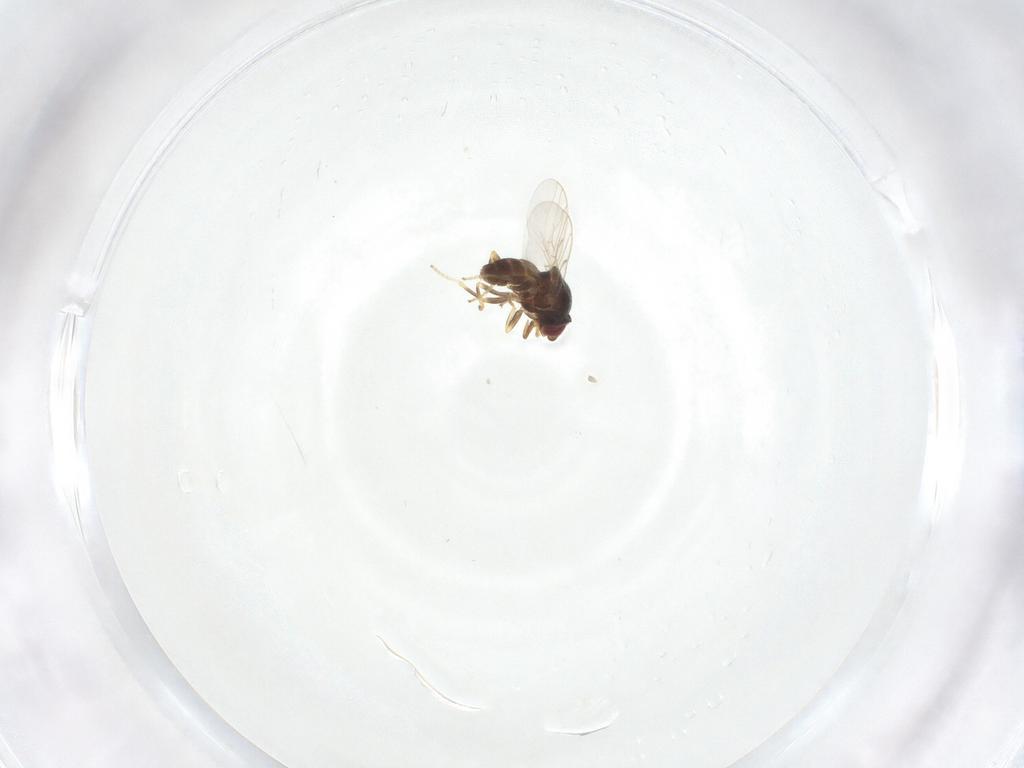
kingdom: Animalia
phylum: Arthropoda
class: Insecta
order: Diptera
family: Chloropidae
